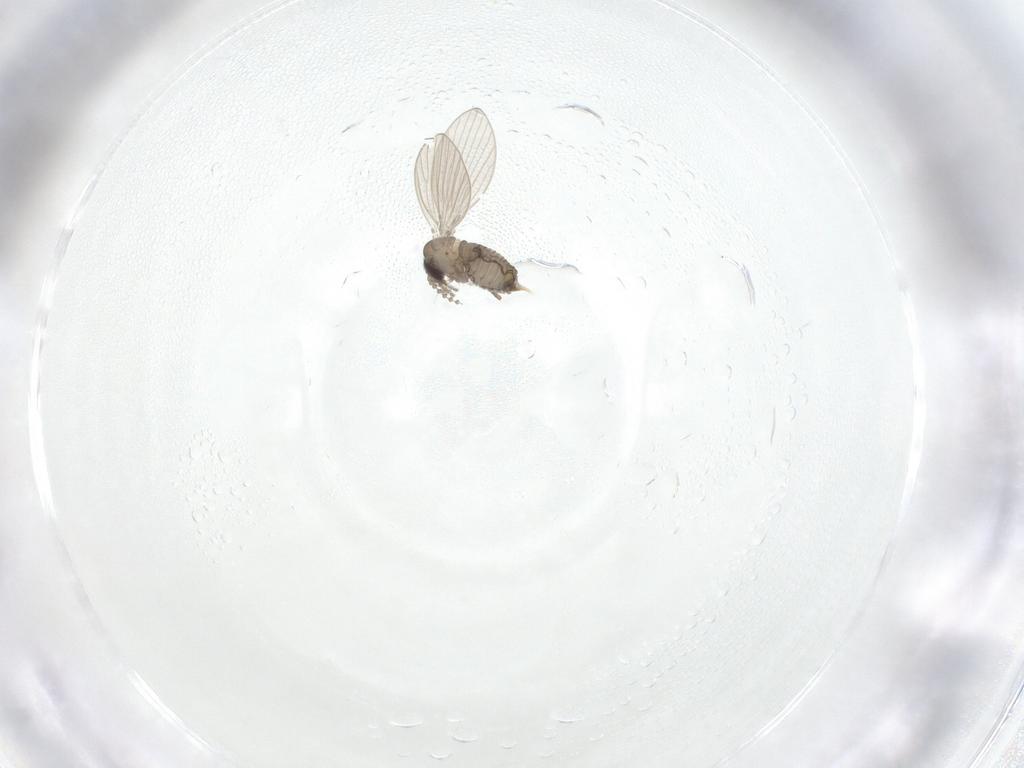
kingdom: Animalia
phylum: Arthropoda
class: Insecta
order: Diptera
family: Psychodidae
